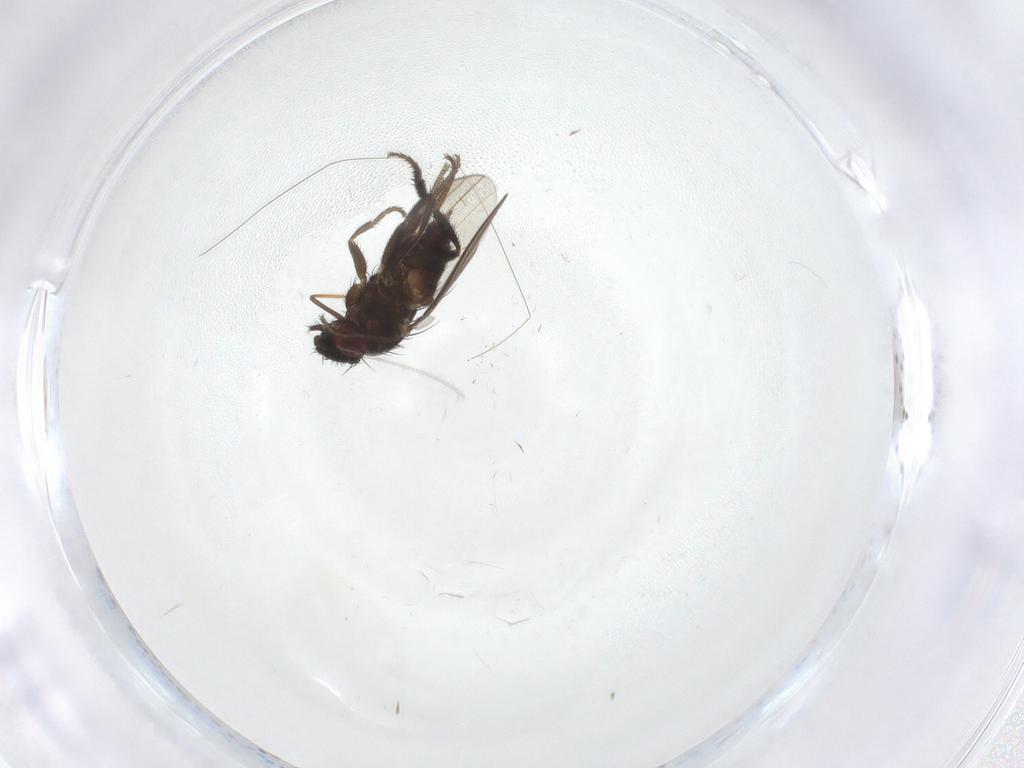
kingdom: Animalia
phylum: Arthropoda
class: Insecta
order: Diptera
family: Milichiidae
